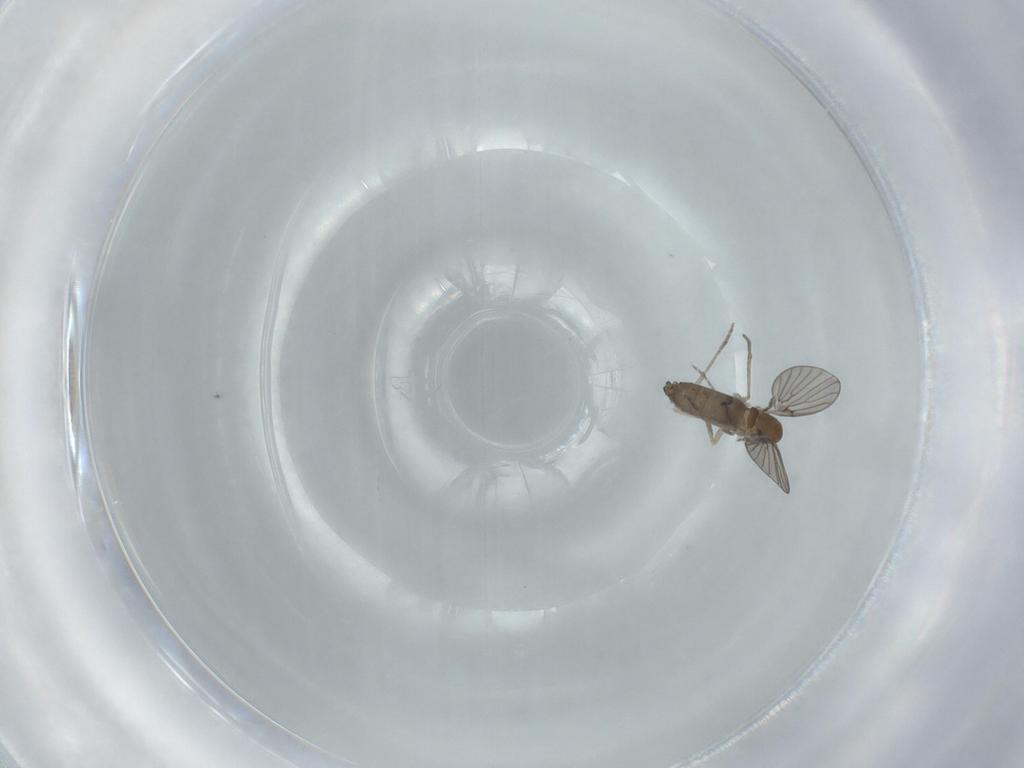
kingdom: Animalia
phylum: Arthropoda
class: Insecta
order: Diptera
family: Psychodidae
